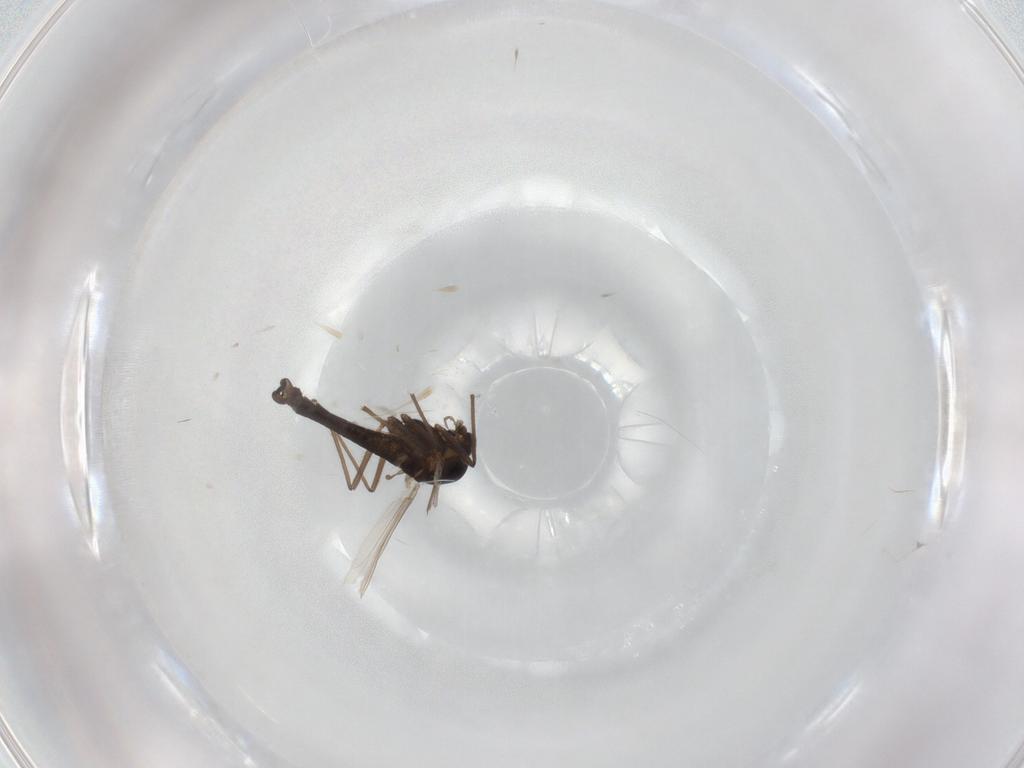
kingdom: Animalia
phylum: Arthropoda
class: Insecta
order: Diptera
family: Chironomidae
